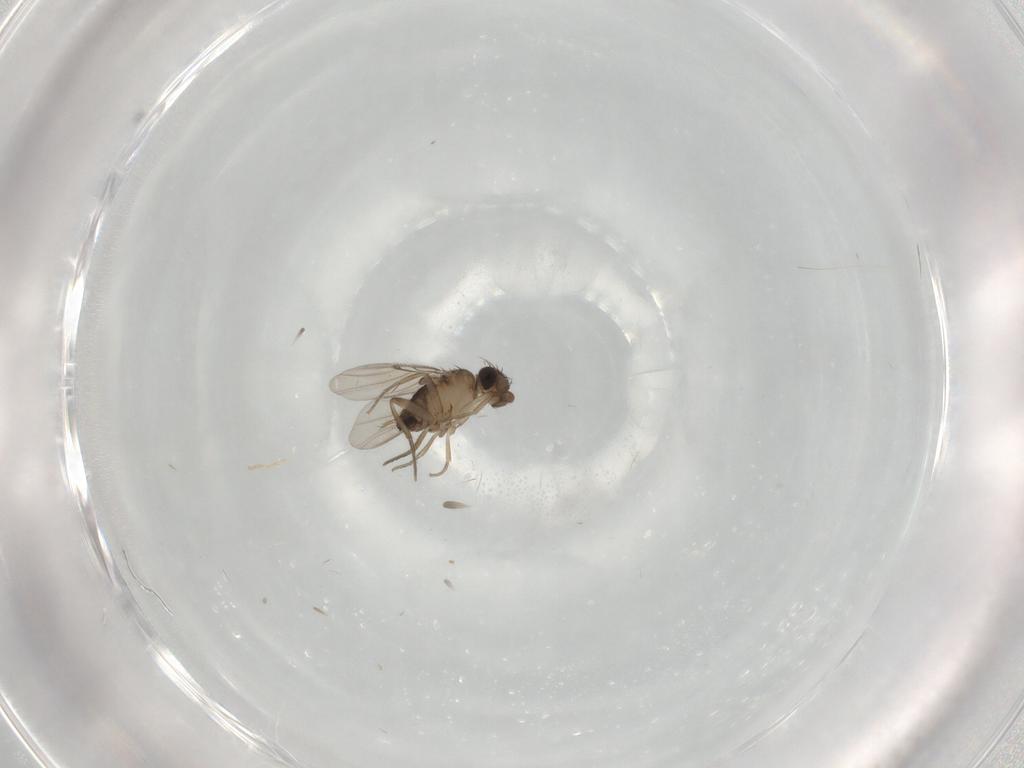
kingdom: Animalia
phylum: Arthropoda
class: Insecta
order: Diptera
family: Phoridae
